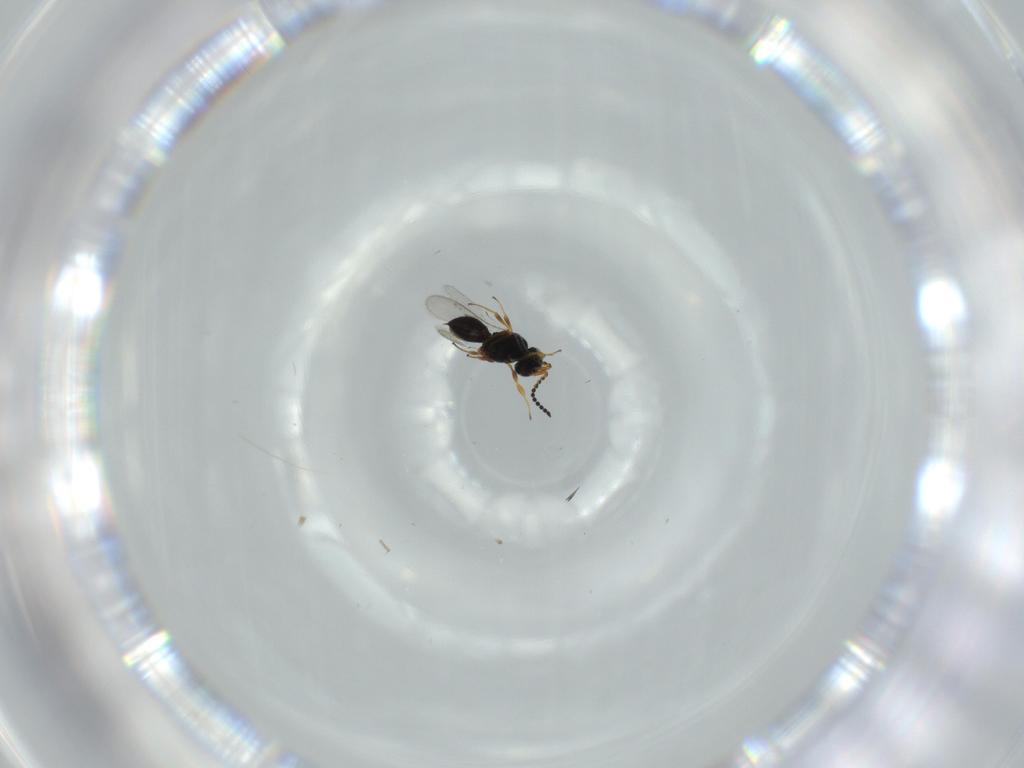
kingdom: Animalia
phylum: Arthropoda
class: Insecta
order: Hymenoptera
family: Scelionidae
